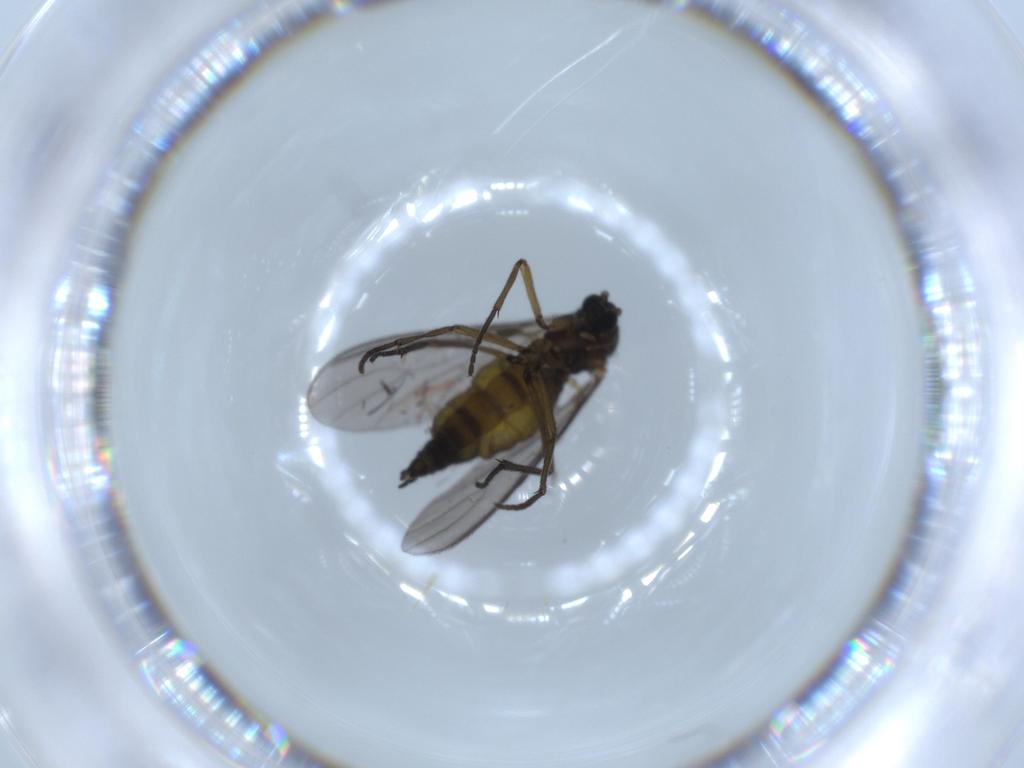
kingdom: Animalia
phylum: Arthropoda
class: Insecta
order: Diptera
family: Sciaridae
